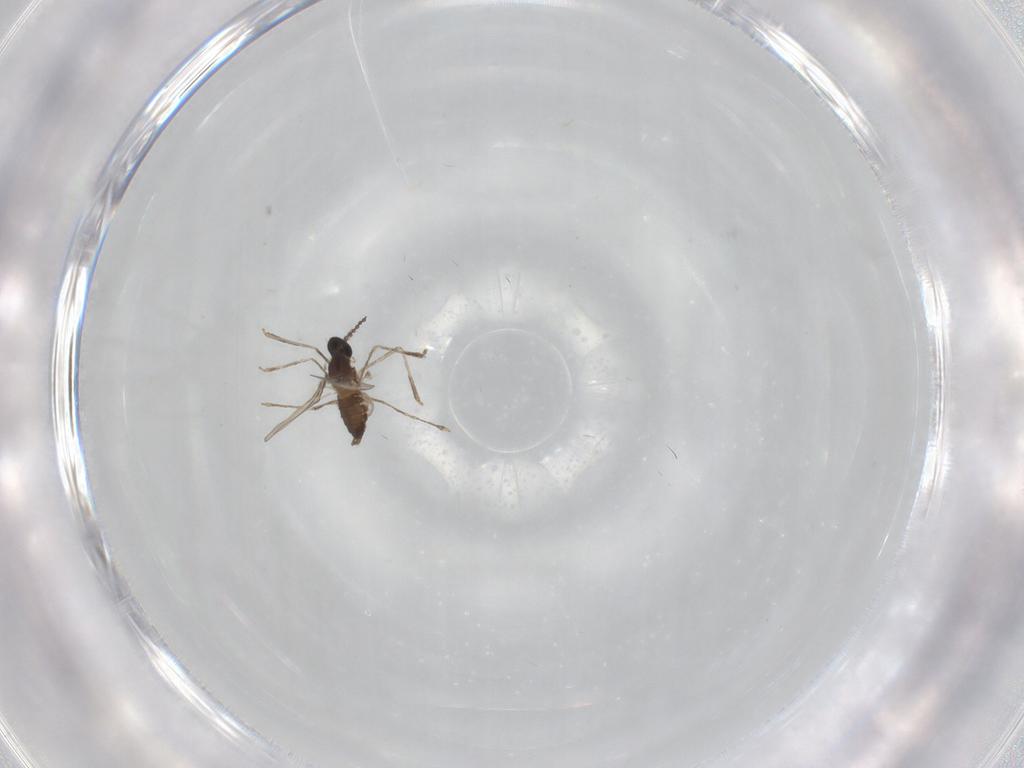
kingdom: Animalia
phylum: Arthropoda
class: Insecta
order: Diptera
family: Cecidomyiidae
